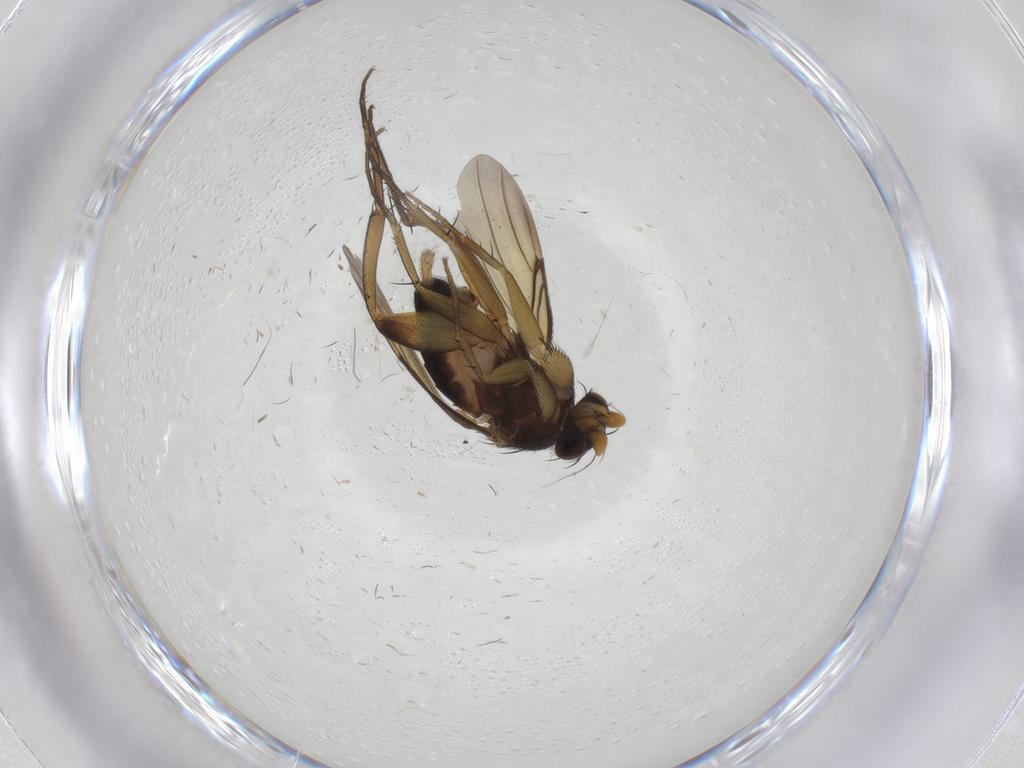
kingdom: Animalia
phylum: Arthropoda
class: Insecta
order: Diptera
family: Phoridae
